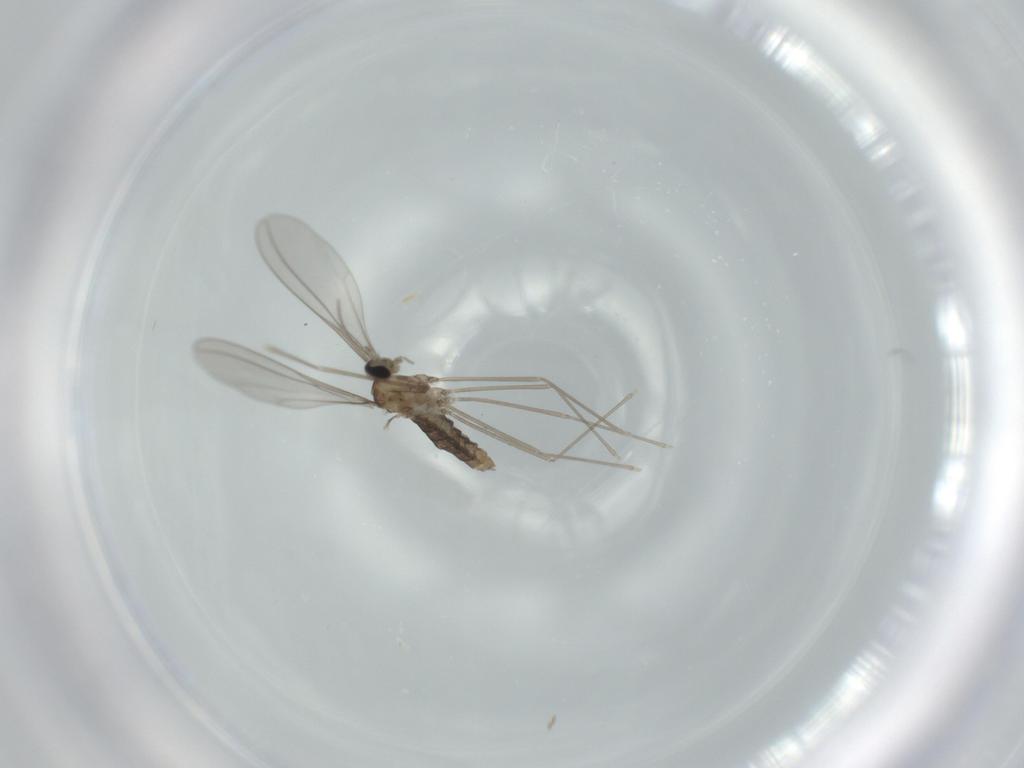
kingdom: Animalia
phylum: Arthropoda
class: Insecta
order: Diptera
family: Cecidomyiidae
